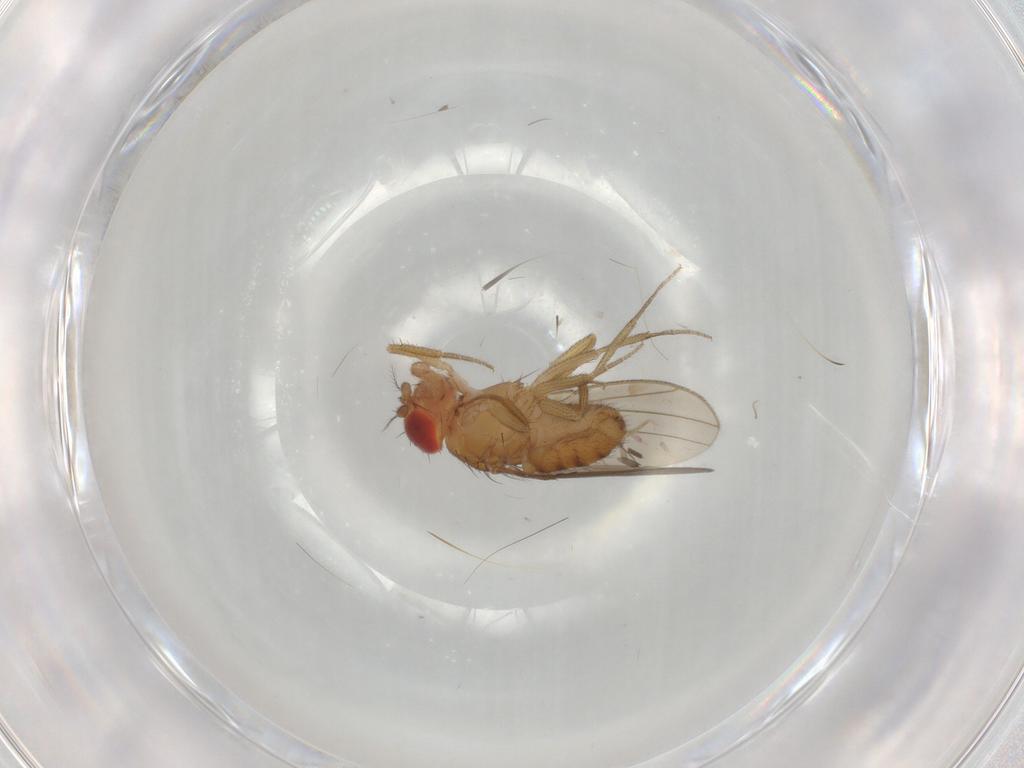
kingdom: Animalia
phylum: Arthropoda
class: Insecta
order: Diptera
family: Drosophilidae
